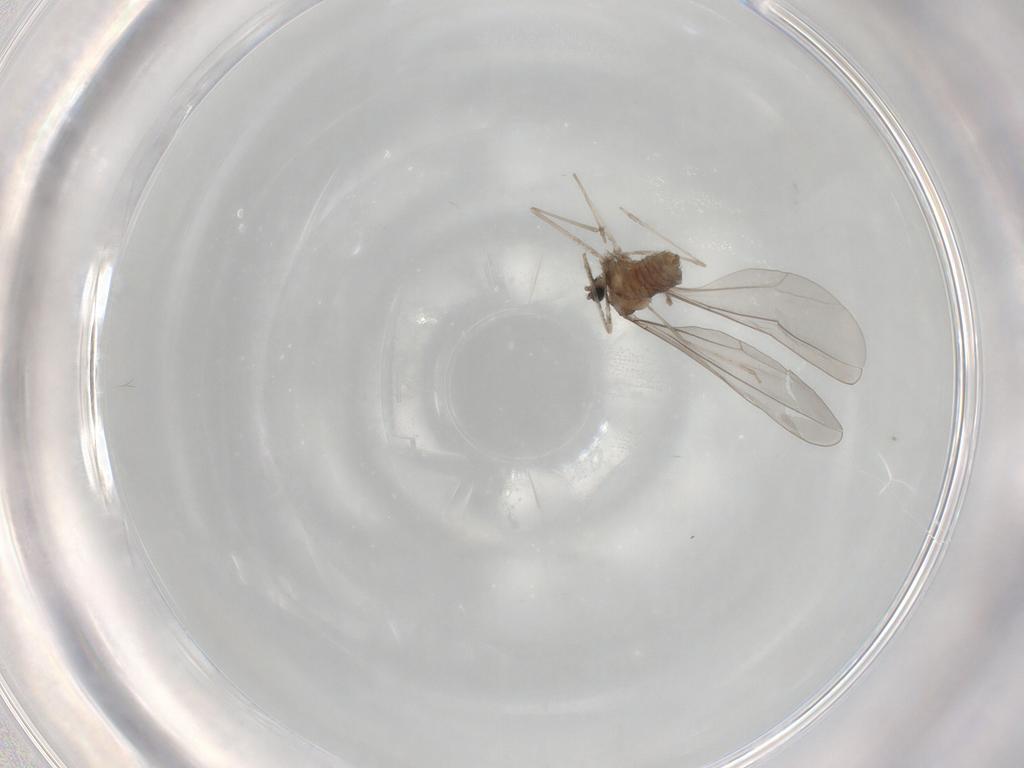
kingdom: Animalia
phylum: Arthropoda
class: Insecta
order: Diptera
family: Cecidomyiidae
